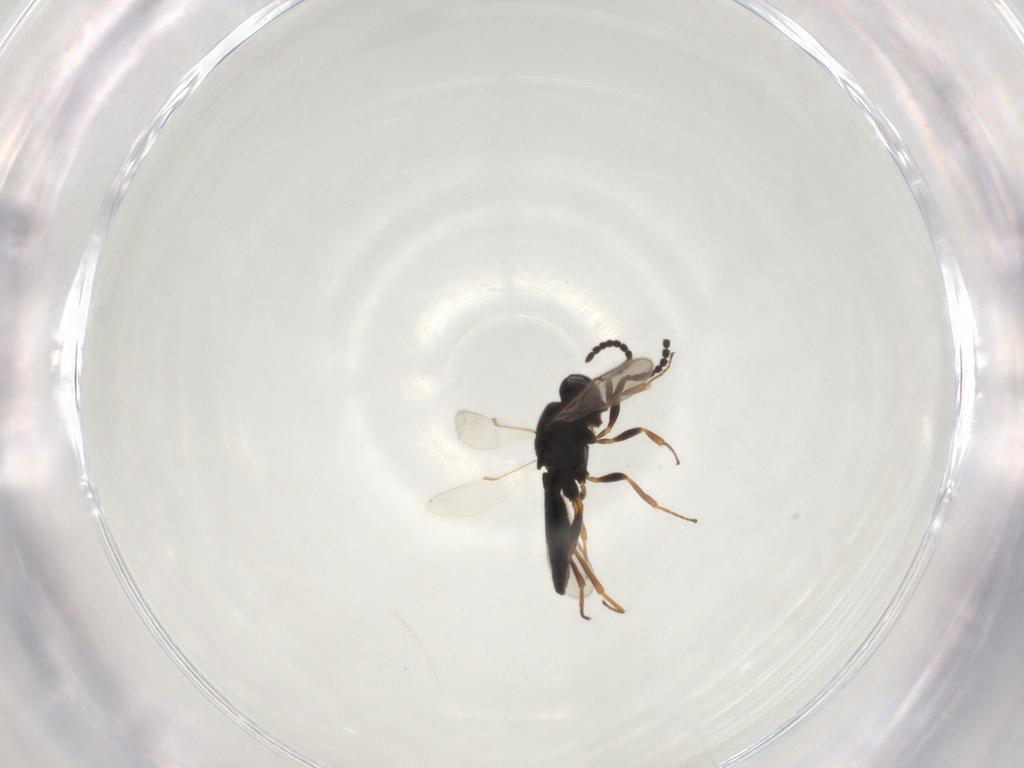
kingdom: Animalia
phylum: Arthropoda
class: Insecta
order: Hymenoptera
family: Scelionidae
